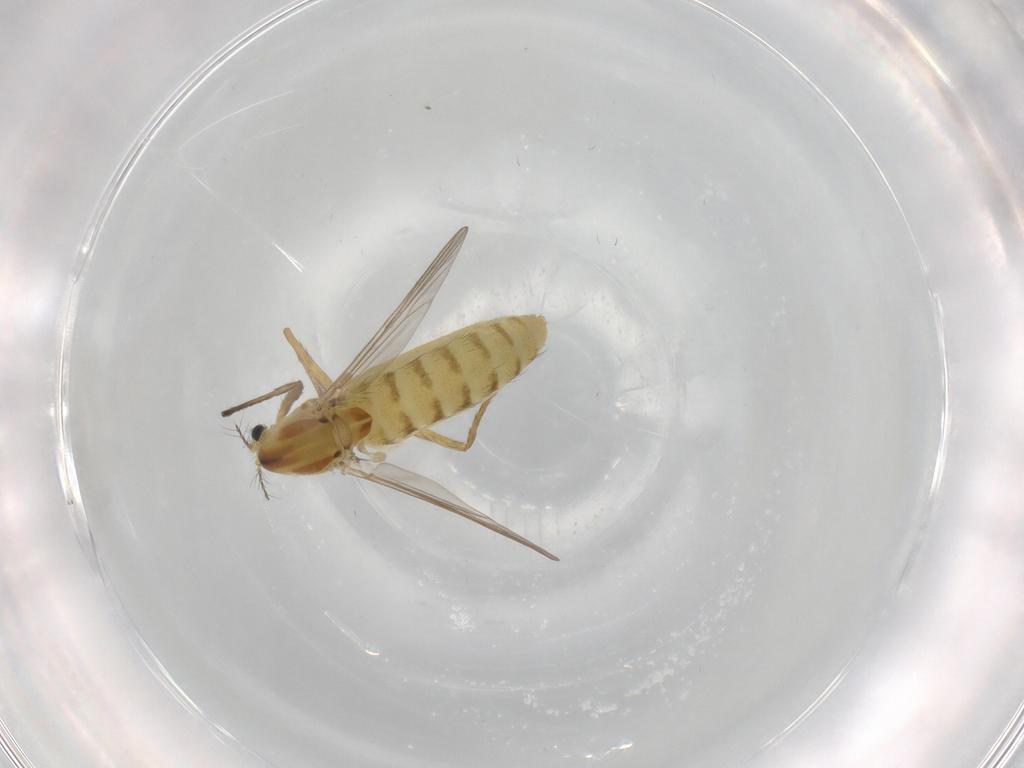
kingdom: Animalia
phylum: Arthropoda
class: Insecta
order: Diptera
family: Chironomidae
